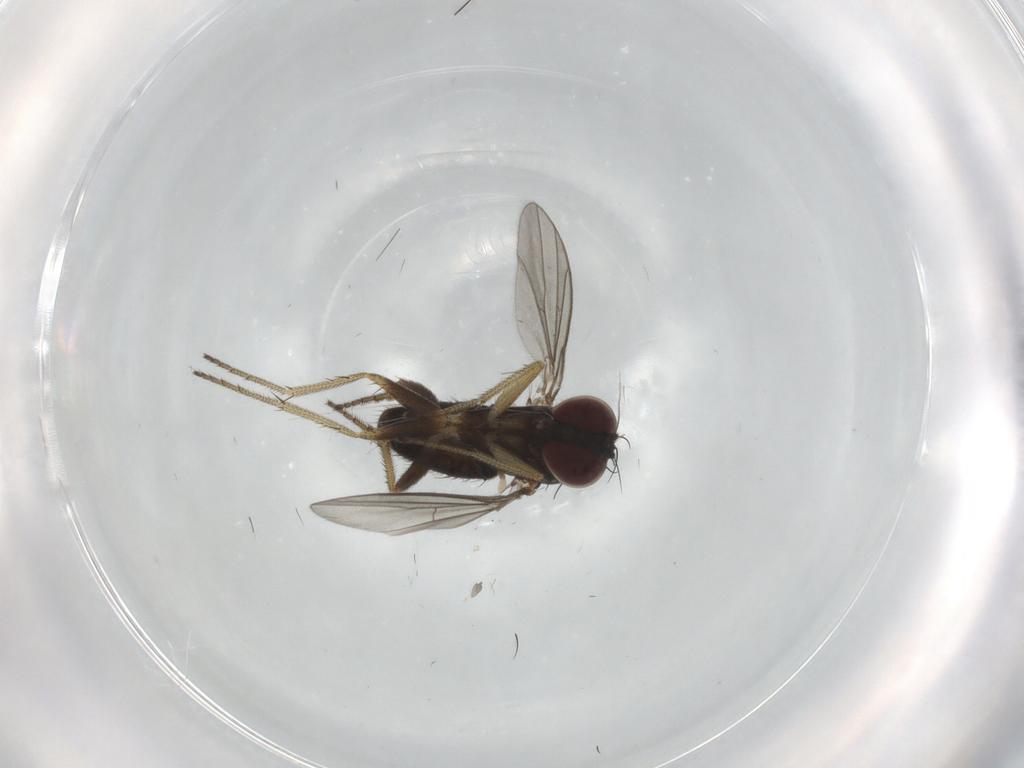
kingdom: Animalia
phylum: Arthropoda
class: Insecta
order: Diptera
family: Dolichopodidae
